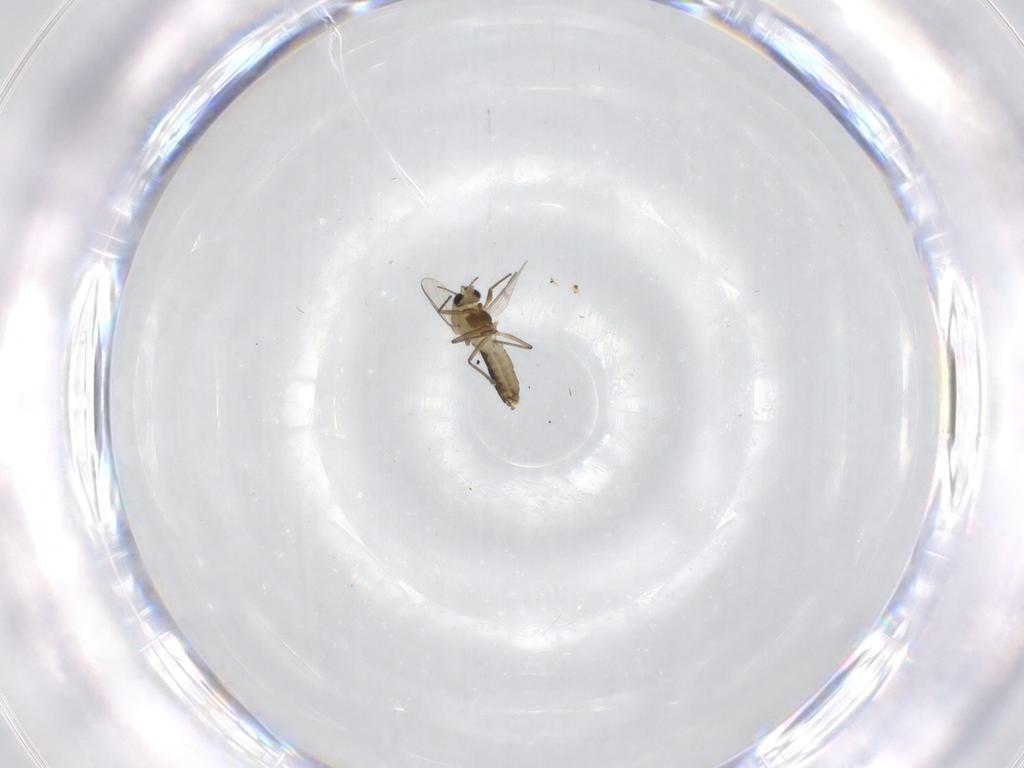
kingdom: Animalia
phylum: Arthropoda
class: Insecta
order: Diptera
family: Chironomidae
